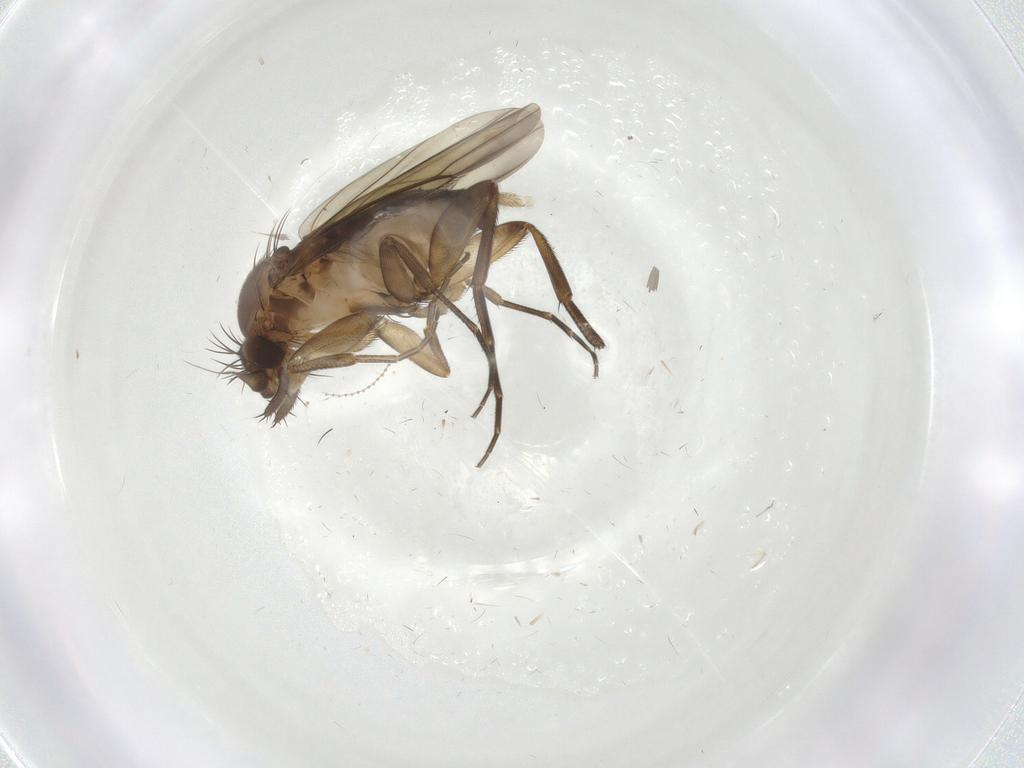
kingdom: Animalia
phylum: Arthropoda
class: Insecta
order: Diptera
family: Phoridae
